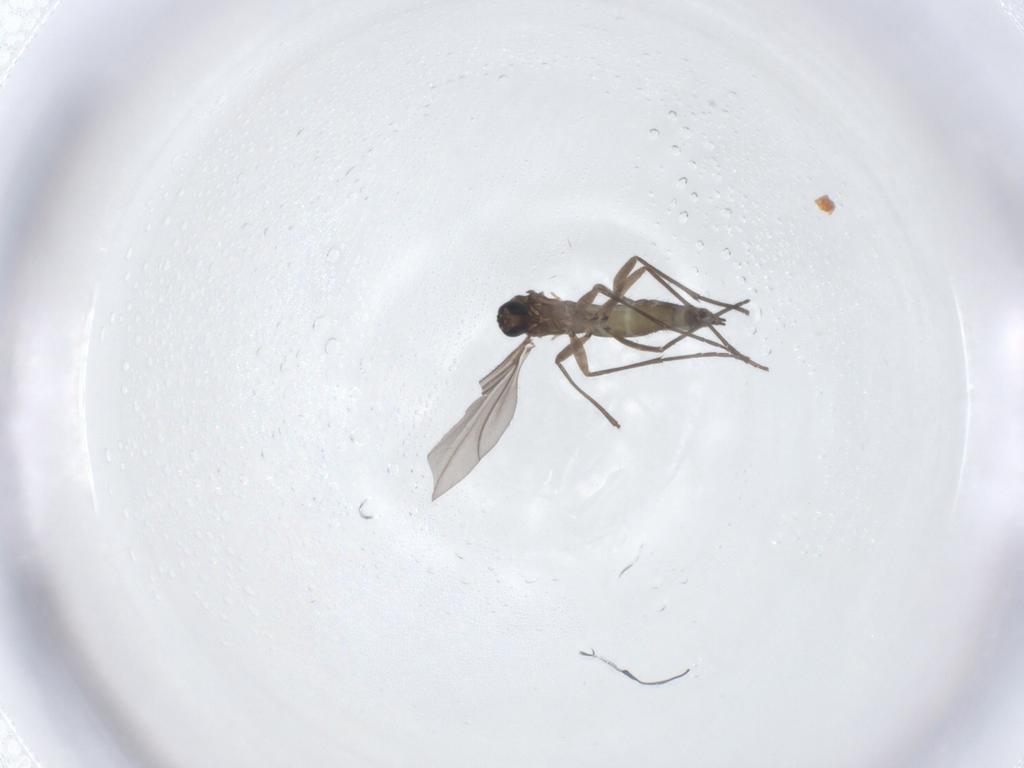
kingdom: Animalia
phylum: Arthropoda
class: Insecta
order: Diptera
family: Sciaridae
